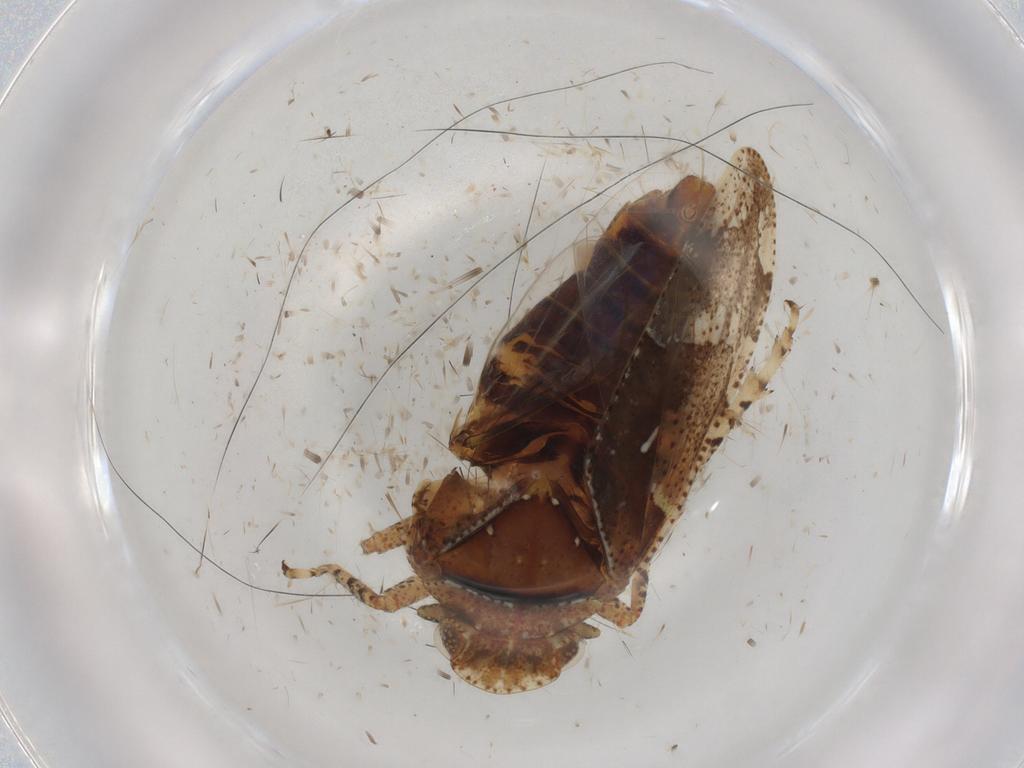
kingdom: Animalia
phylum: Arthropoda
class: Insecta
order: Hemiptera
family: Tettigometridae
